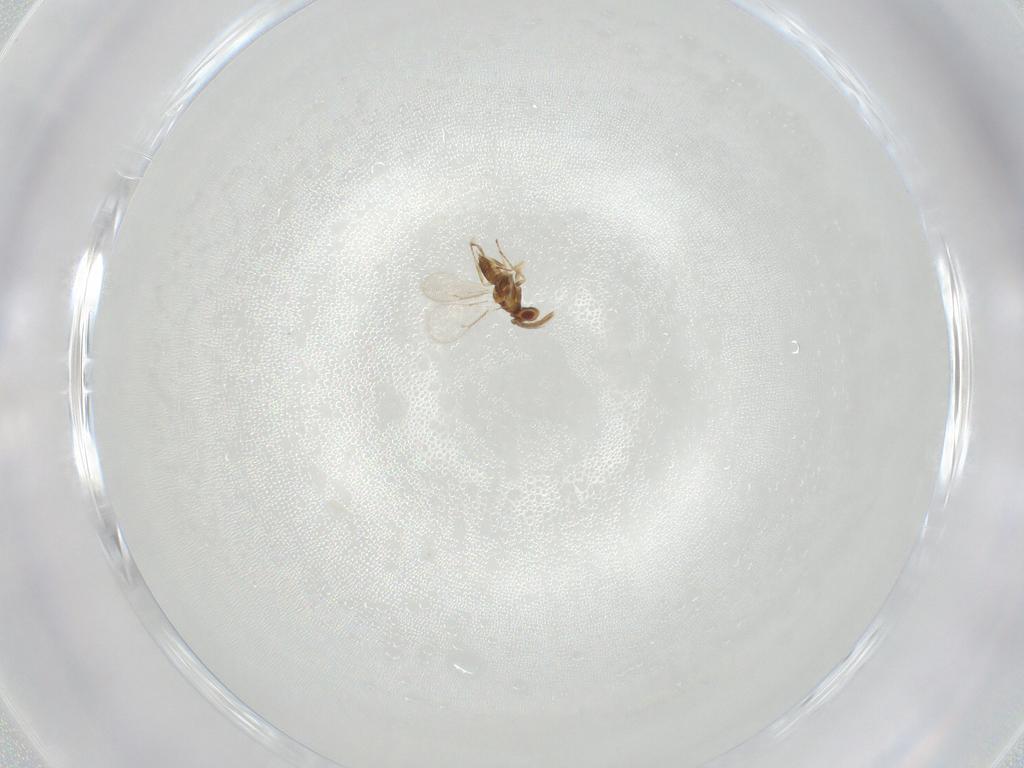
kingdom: Animalia
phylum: Arthropoda
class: Insecta
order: Hymenoptera
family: Eulophidae
